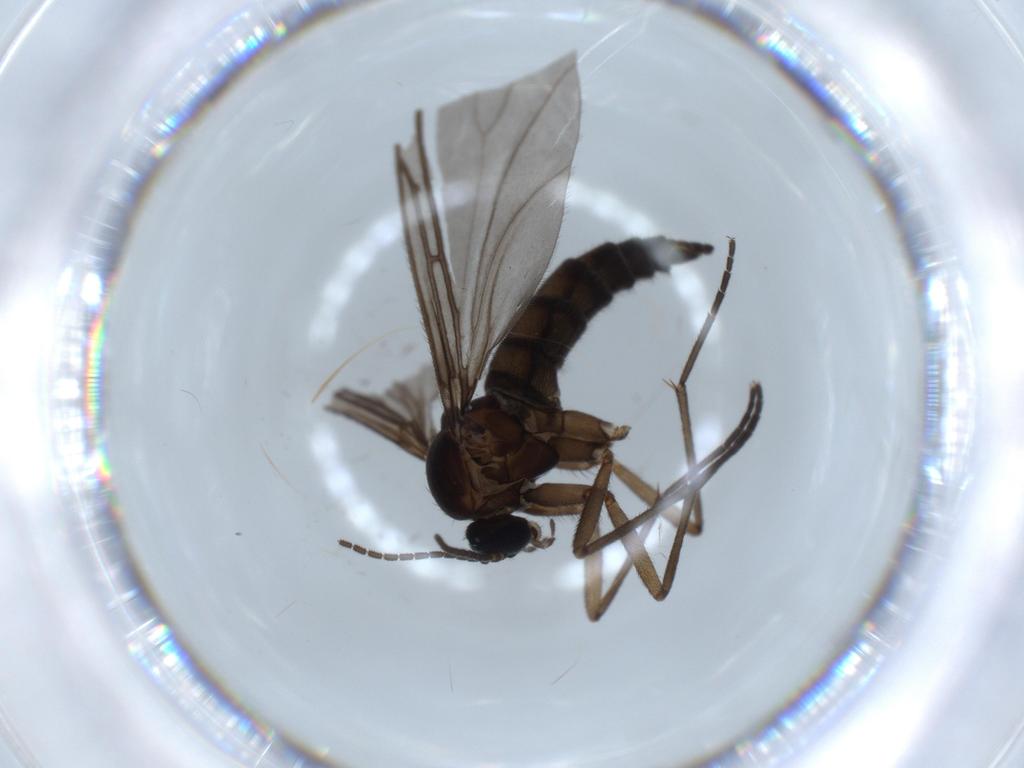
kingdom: Animalia
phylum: Arthropoda
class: Insecta
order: Diptera
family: Sciaridae
